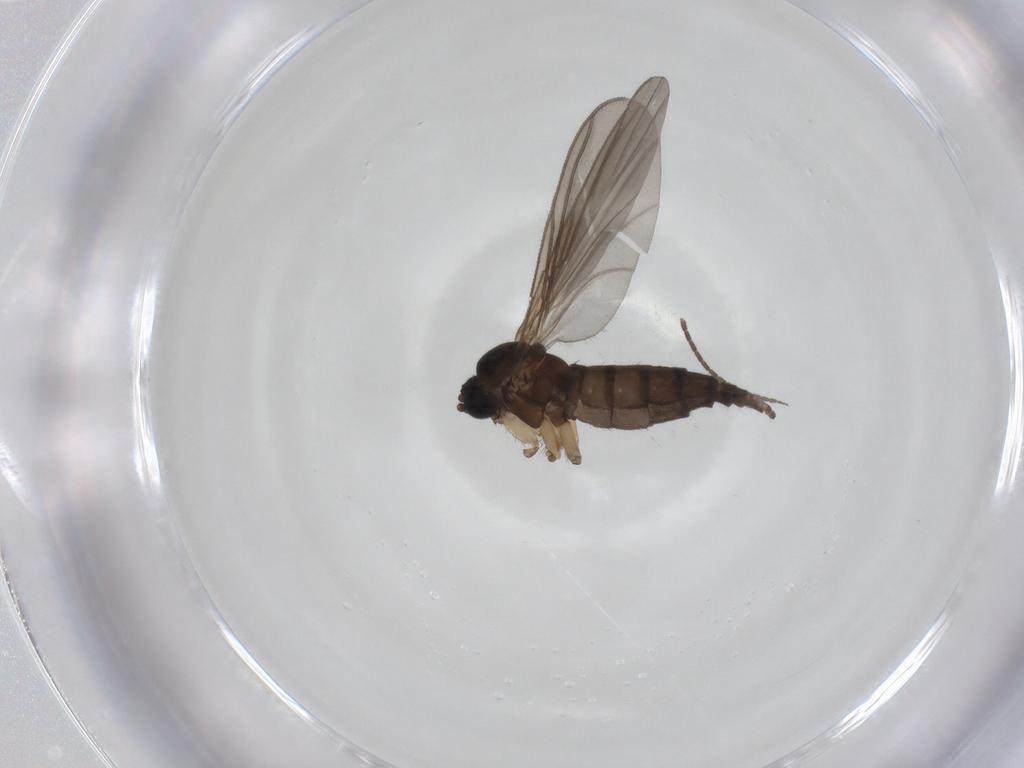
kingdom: Animalia
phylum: Arthropoda
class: Insecta
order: Diptera
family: Sciaridae
